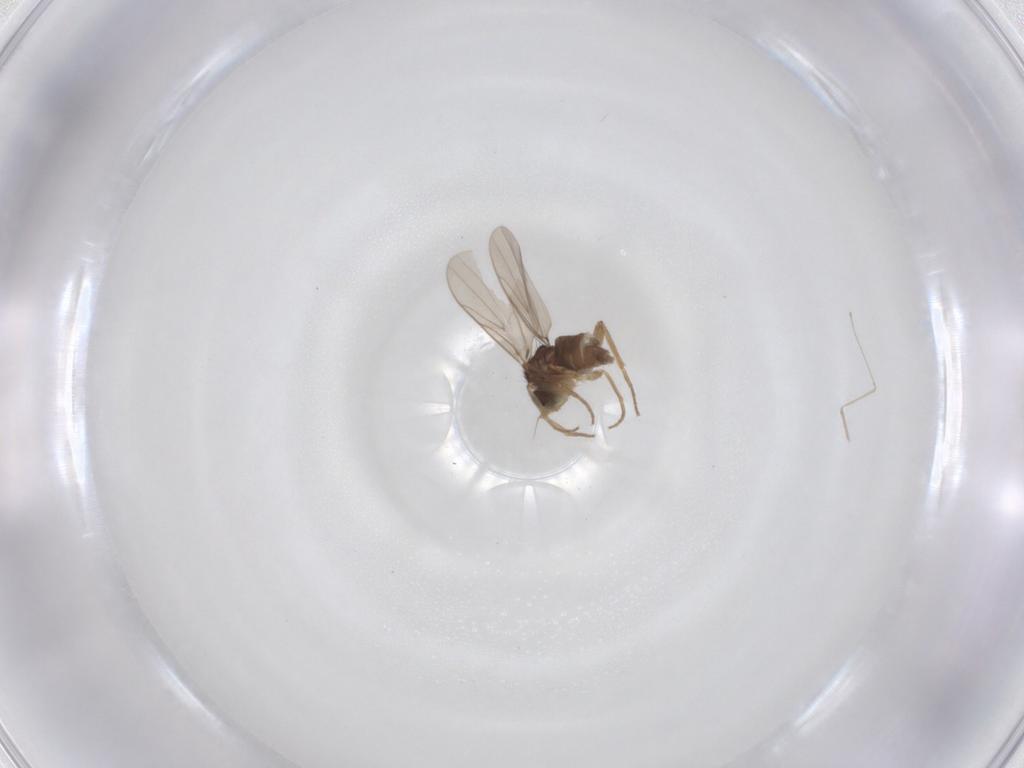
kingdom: Animalia
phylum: Arthropoda
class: Insecta
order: Diptera
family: Hybotidae
